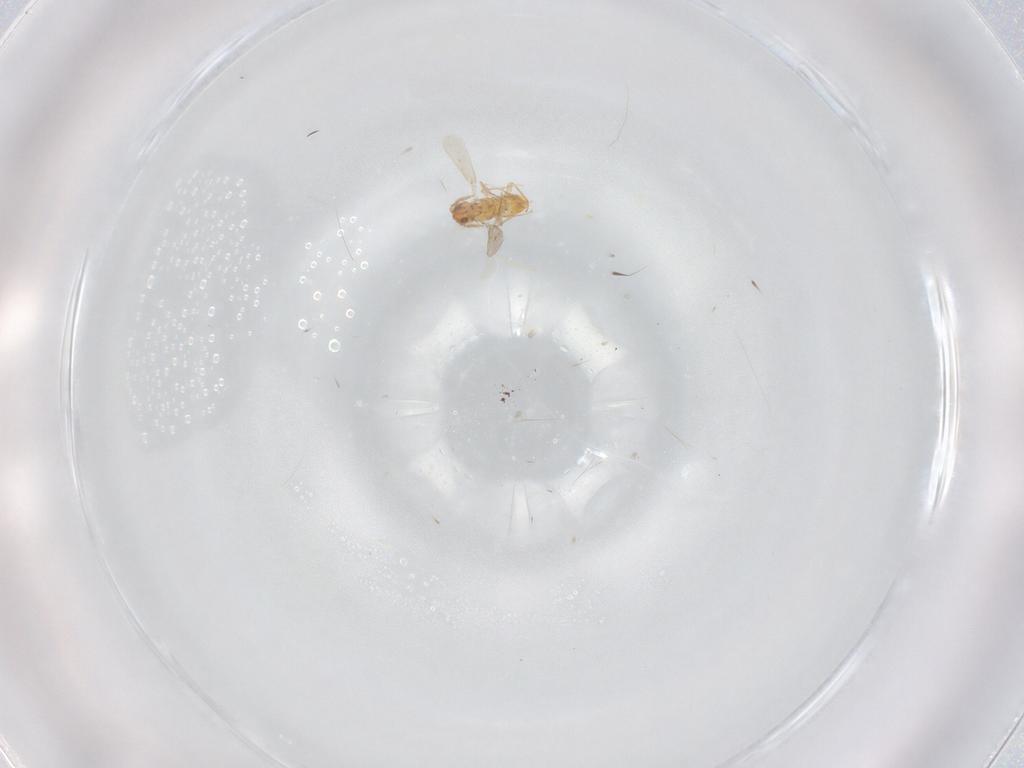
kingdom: Animalia
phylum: Arthropoda
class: Insecta
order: Hymenoptera
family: Aphelinidae
